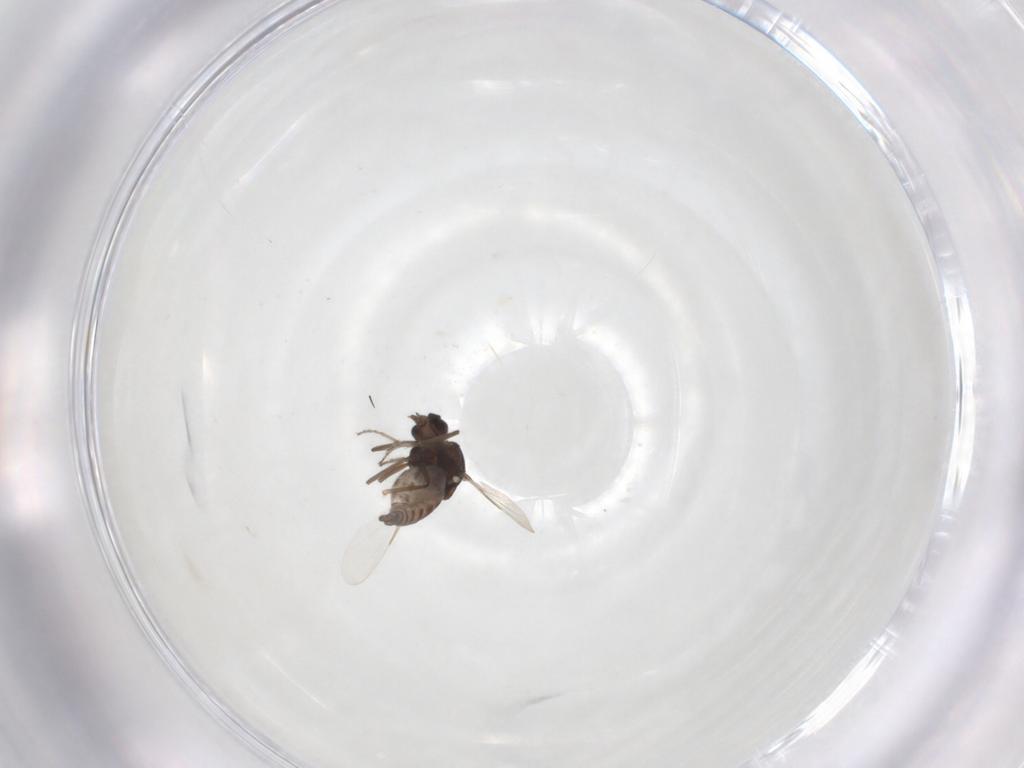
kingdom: Animalia
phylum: Arthropoda
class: Insecta
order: Diptera
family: Ceratopogonidae
